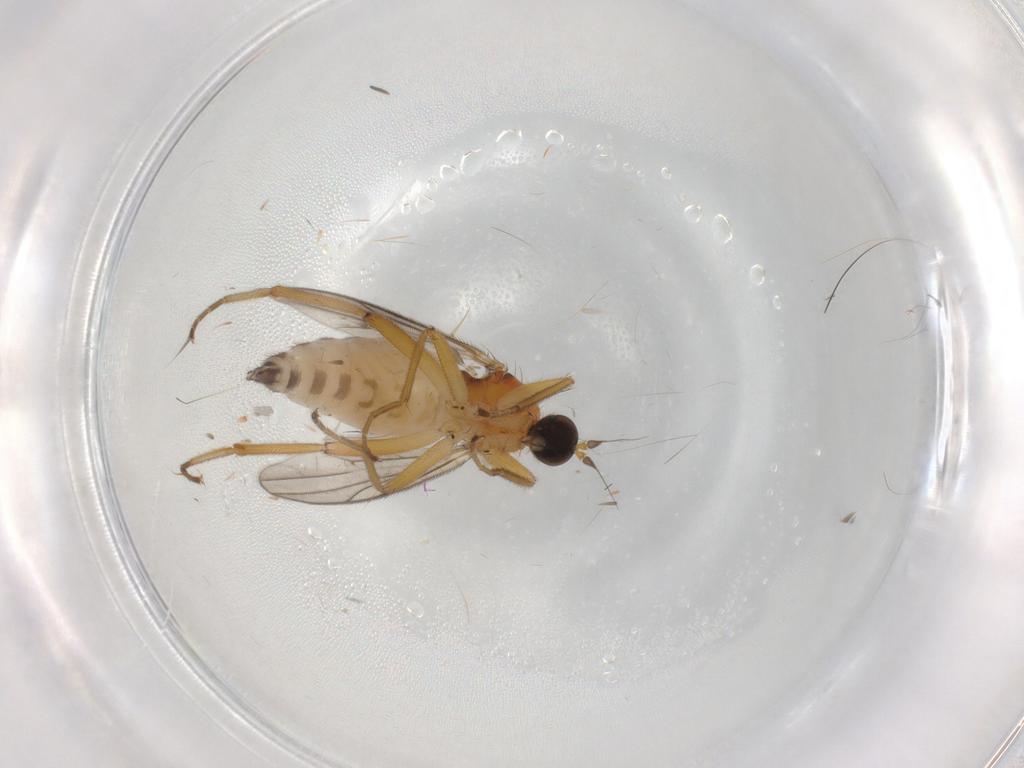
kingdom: Animalia
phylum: Arthropoda
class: Insecta
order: Diptera
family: Hybotidae
